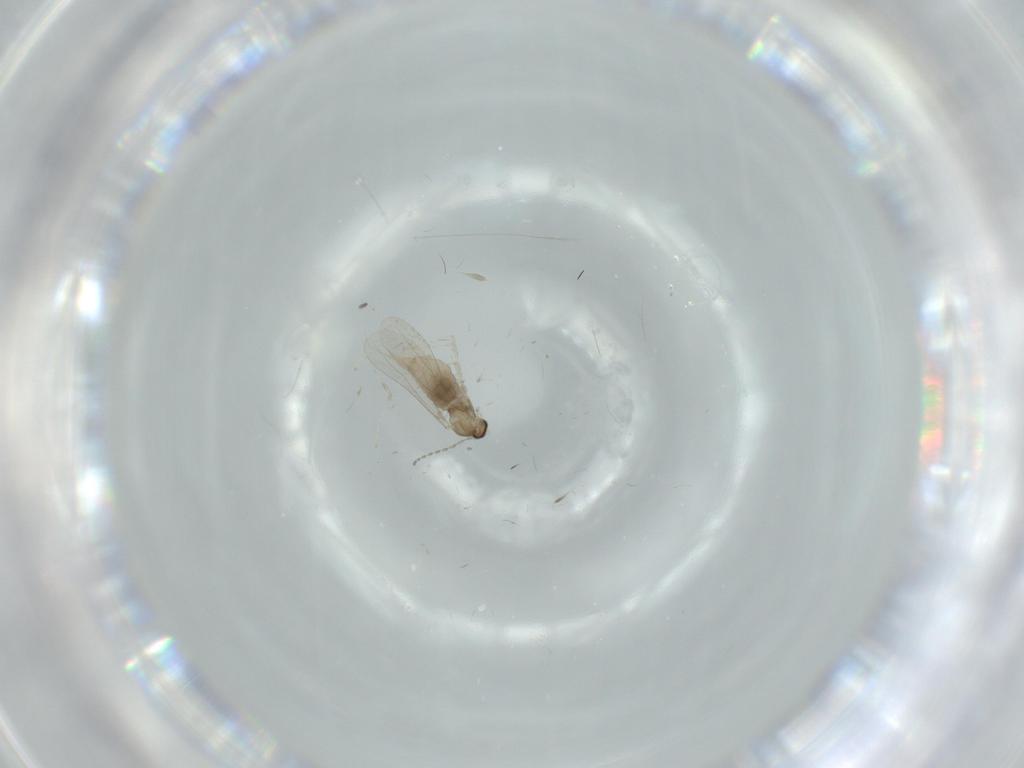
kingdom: Animalia
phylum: Arthropoda
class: Insecta
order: Diptera
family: Cecidomyiidae
